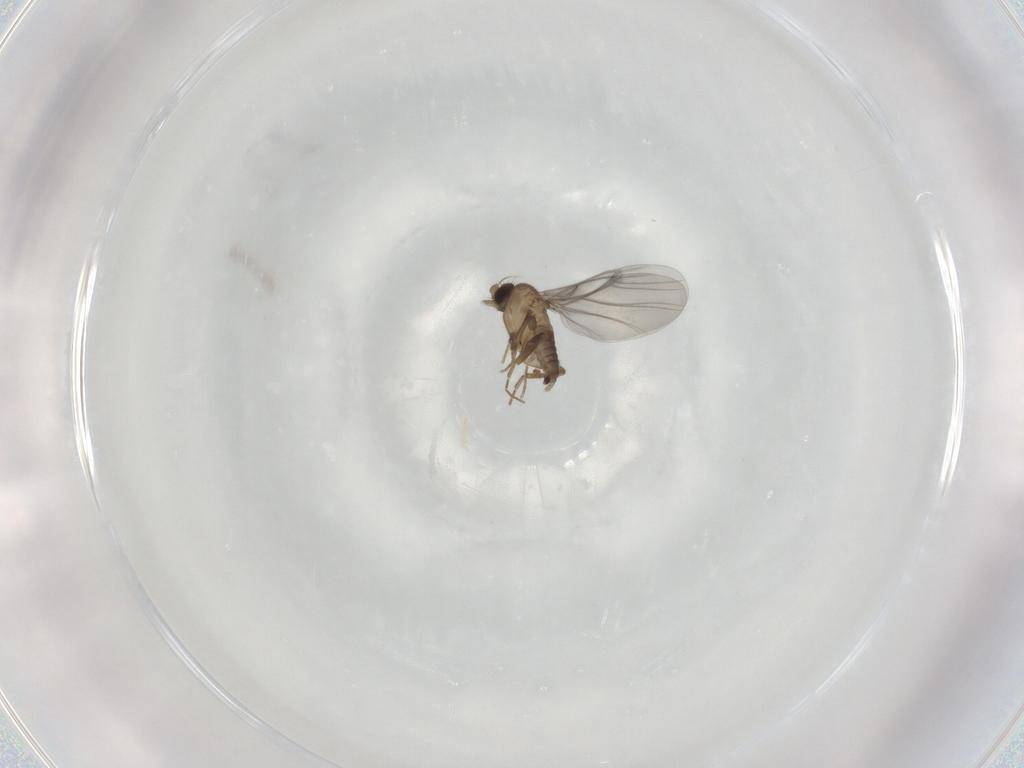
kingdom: Animalia
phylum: Arthropoda
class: Insecta
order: Diptera
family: Sciaridae
